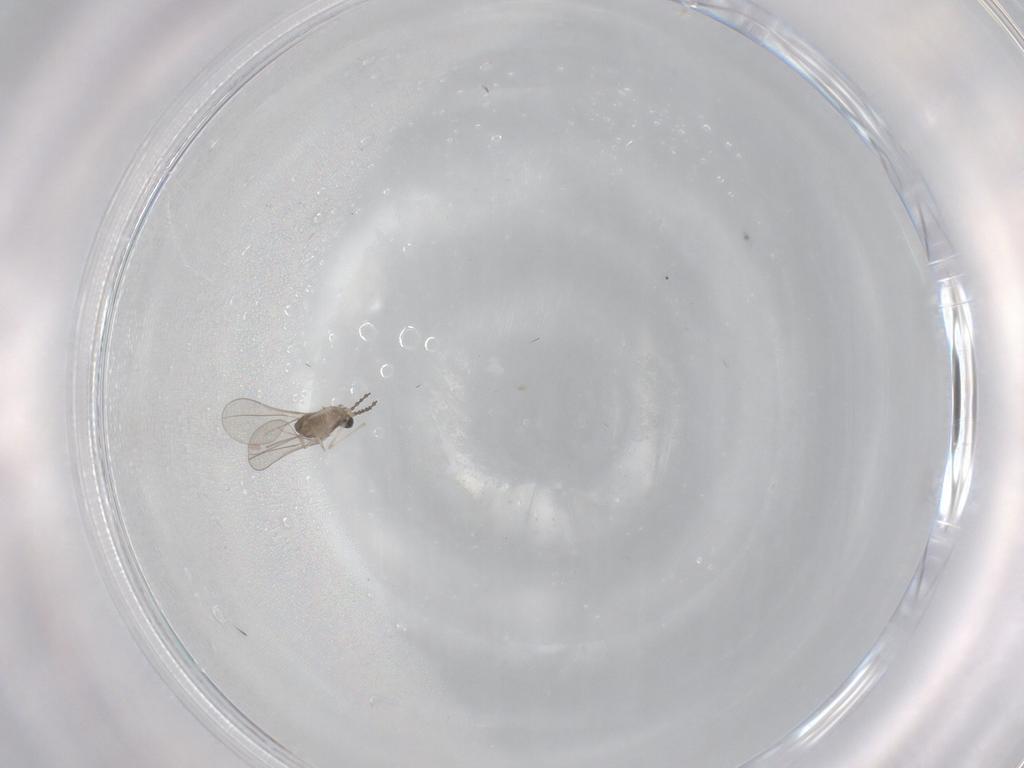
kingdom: Animalia
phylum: Arthropoda
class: Insecta
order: Diptera
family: Cecidomyiidae
